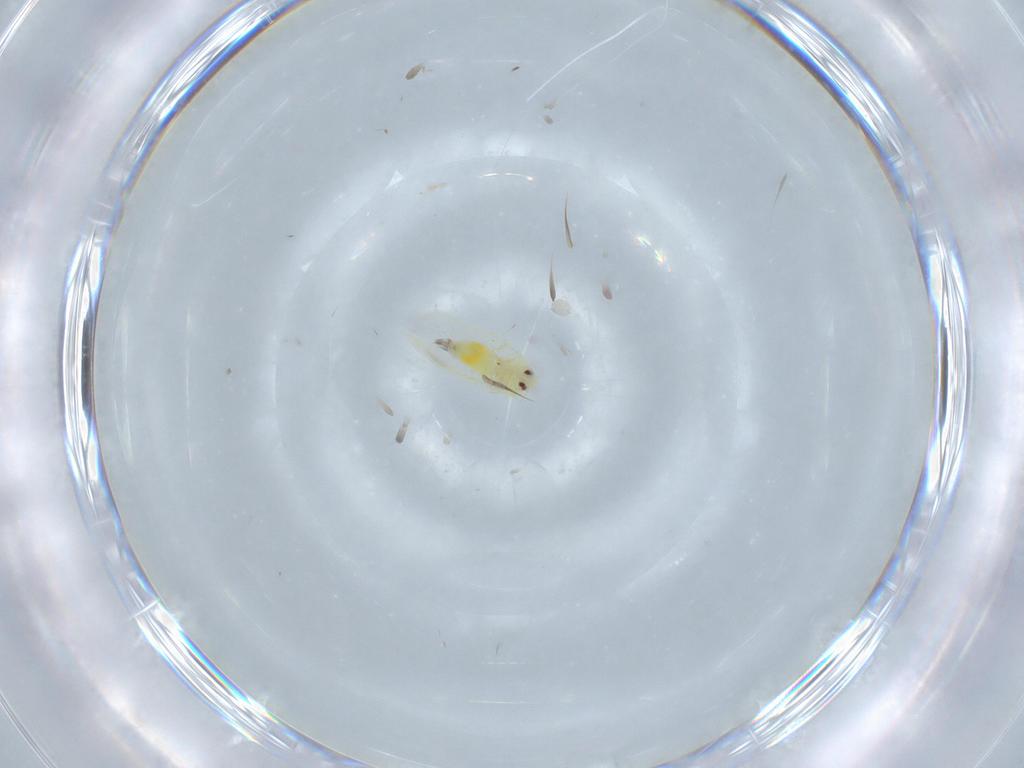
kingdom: Animalia
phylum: Arthropoda
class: Insecta
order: Hemiptera
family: Aleyrodidae
